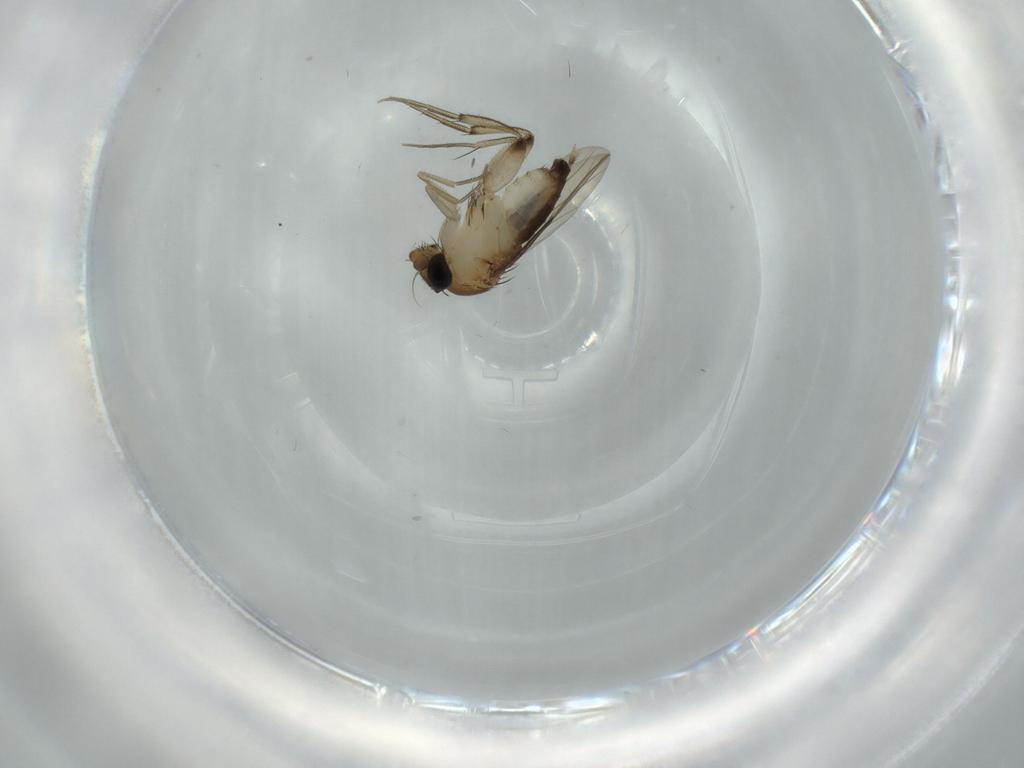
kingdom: Animalia
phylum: Arthropoda
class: Insecta
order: Diptera
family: Phoridae
